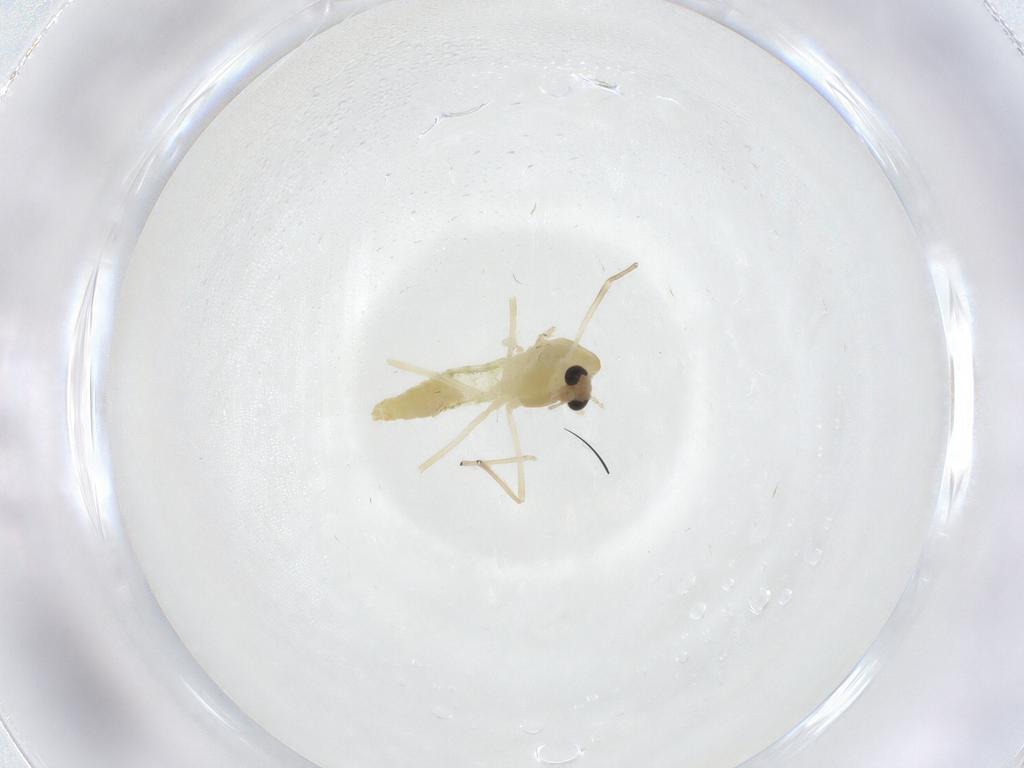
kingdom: Animalia
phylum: Arthropoda
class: Insecta
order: Diptera
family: Chironomidae
